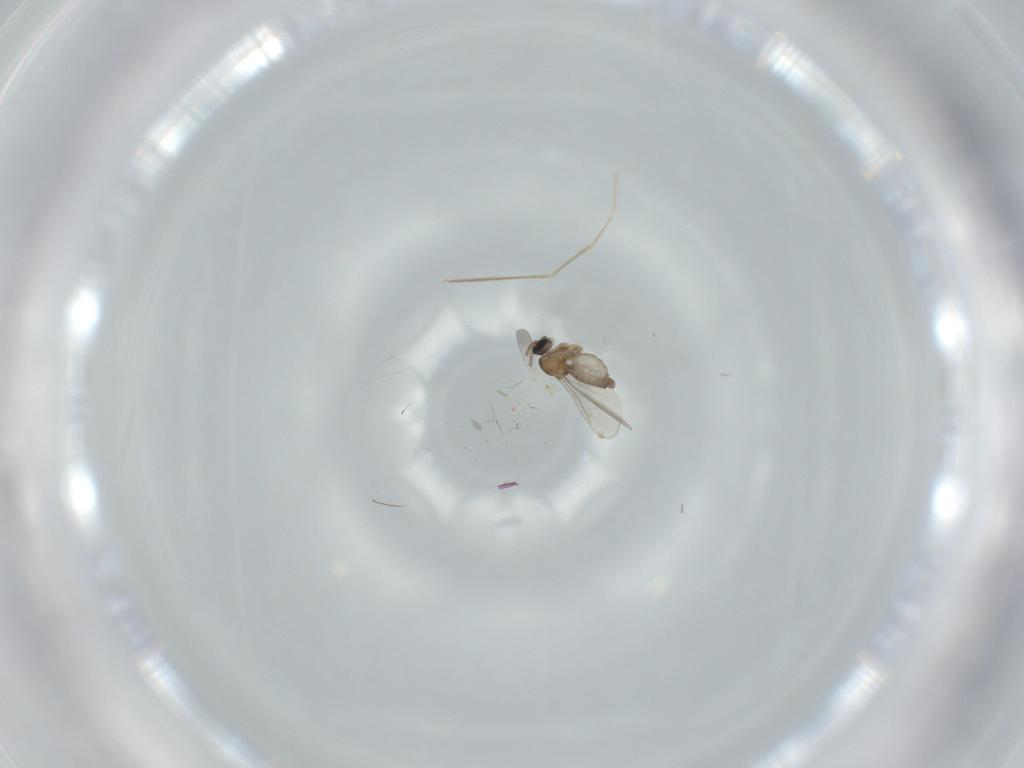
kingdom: Animalia
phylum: Arthropoda
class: Insecta
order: Diptera
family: Chironomidae
